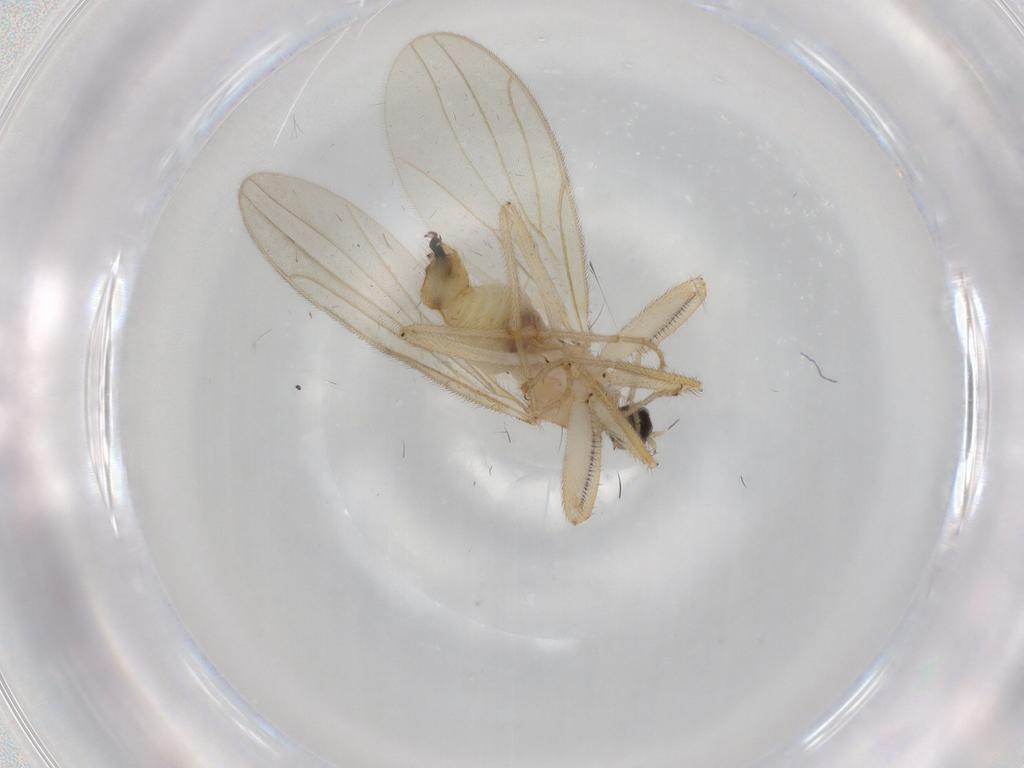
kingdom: Animalia
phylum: Arthropoda
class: Insecta
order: Diptera
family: Hybotidae
